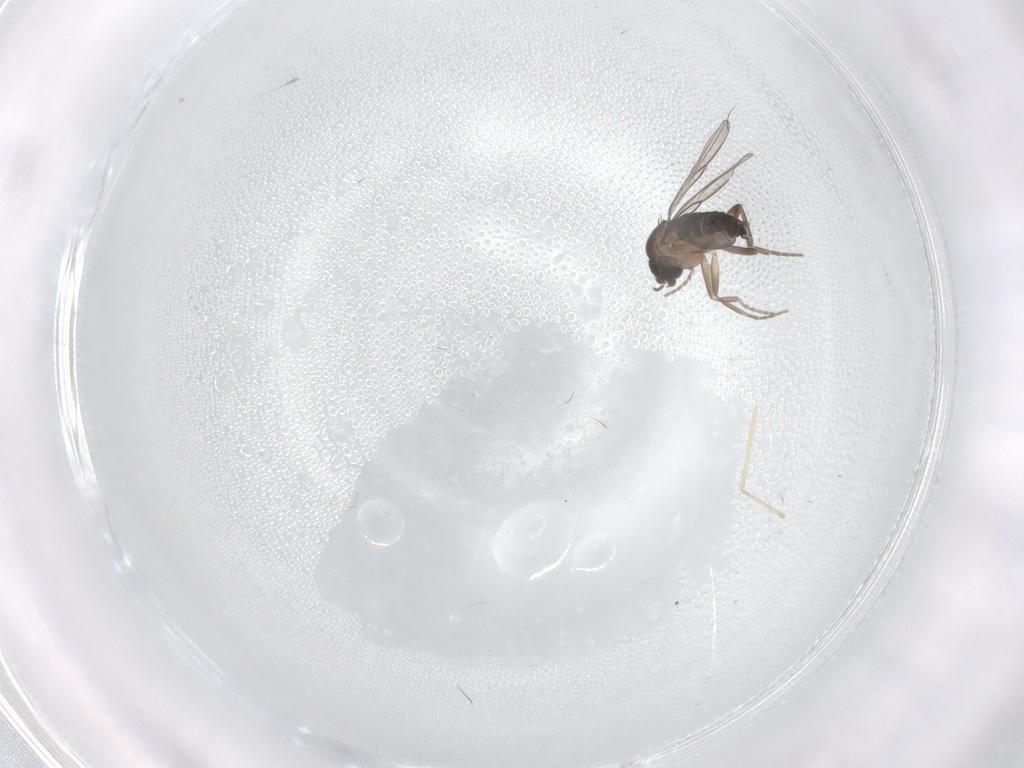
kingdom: Animalia
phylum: Arthropoda
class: Insecta
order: Diptera
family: Cecidomyiidae
